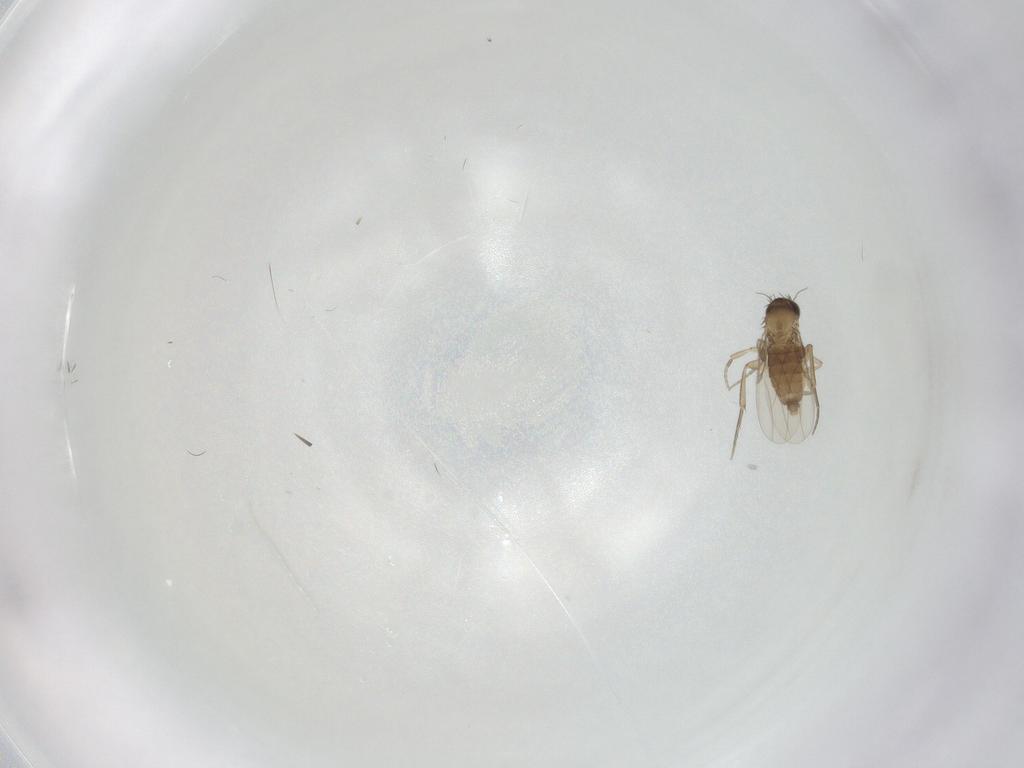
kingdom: Animalia
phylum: Arthropoda
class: Insecta
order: Diptera
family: Phoridae
